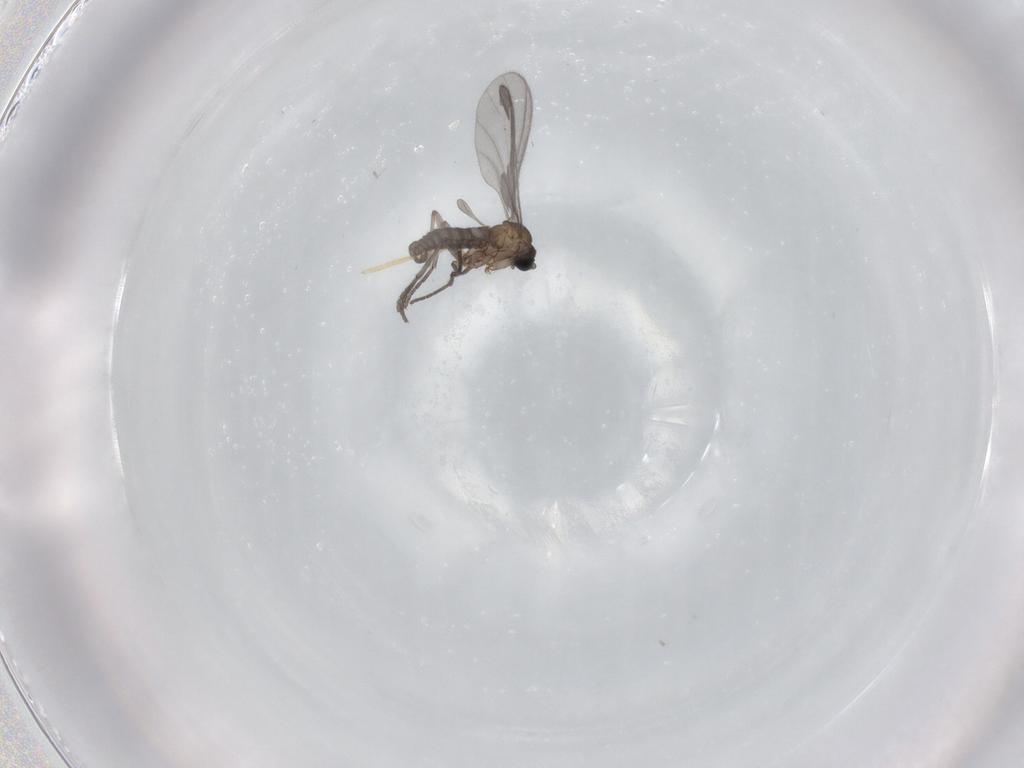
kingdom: Animalia
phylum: Arthropoda
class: Insecta
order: Diptera
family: Sciaridae
